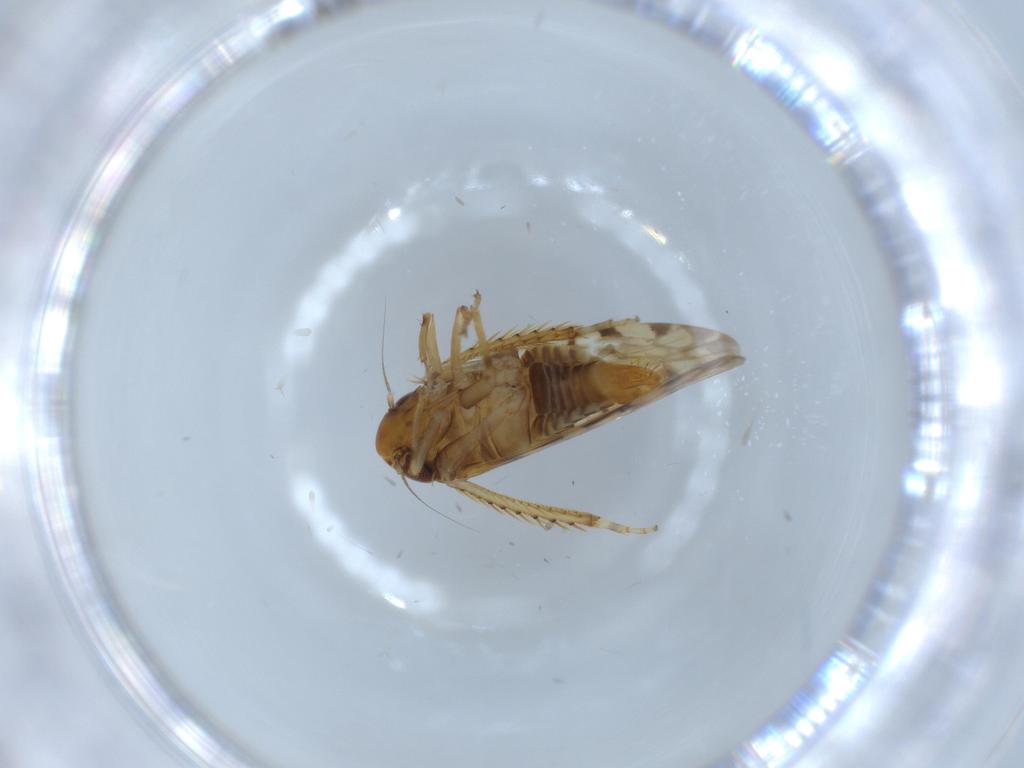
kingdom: Animalia
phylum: Arthropoda
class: Insecta
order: Hemiptera
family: Cicadellidae
